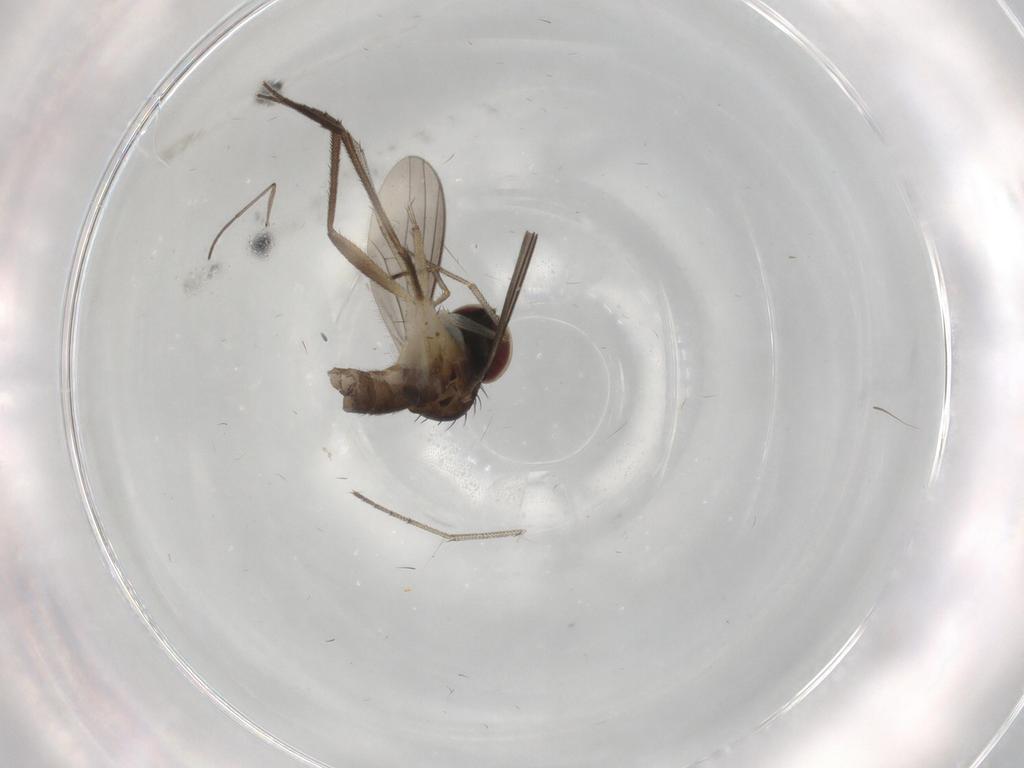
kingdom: Animalia
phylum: Arthropoda
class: Insecta
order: Diptera
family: Dolichopodidae
